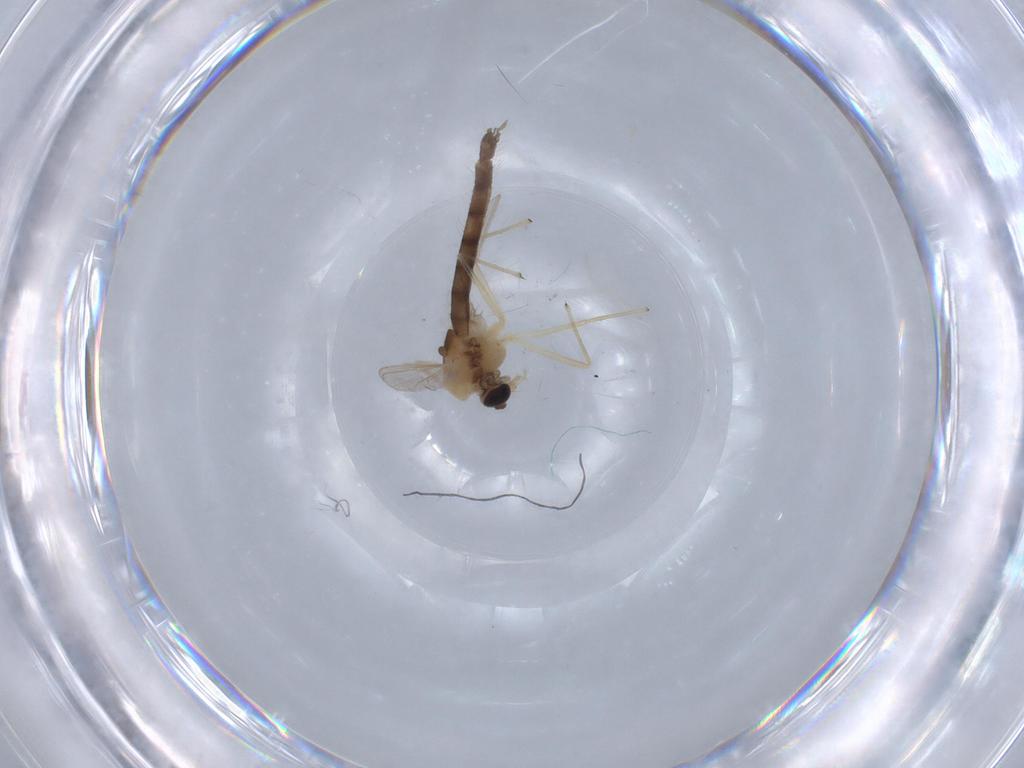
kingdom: Animalia
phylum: Arthropoda
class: Insecta
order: Diptera
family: Chironomidae
